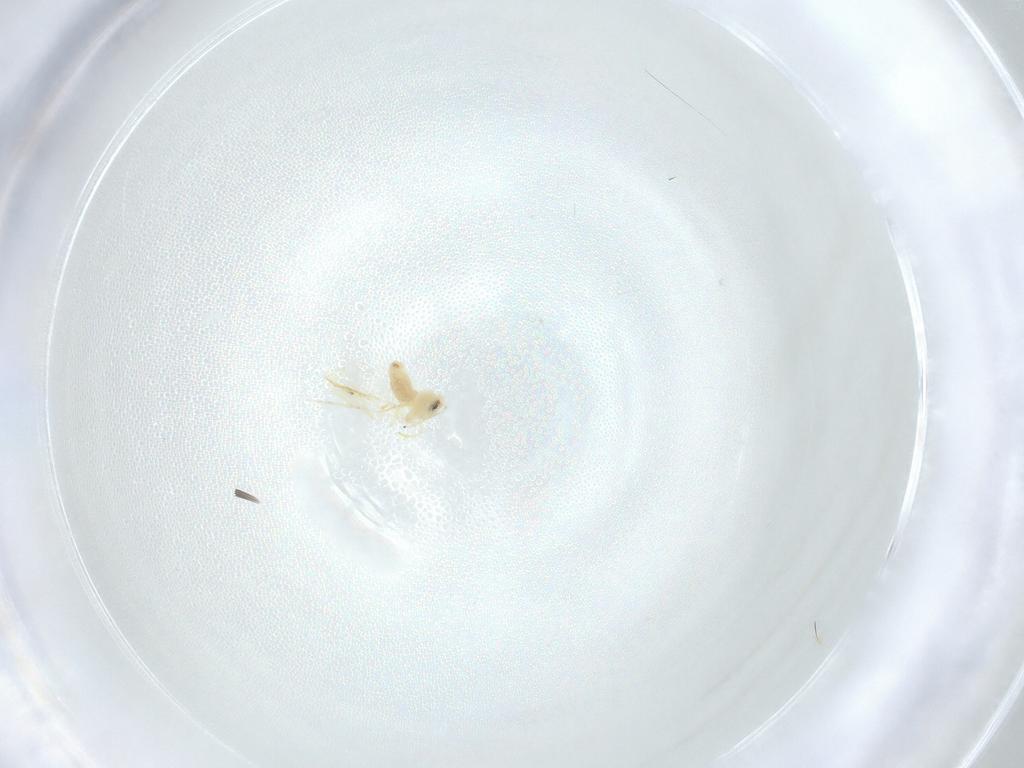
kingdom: Animalia
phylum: Arthropoda
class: Insecta
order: Diptera
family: Cecidomyiidae
